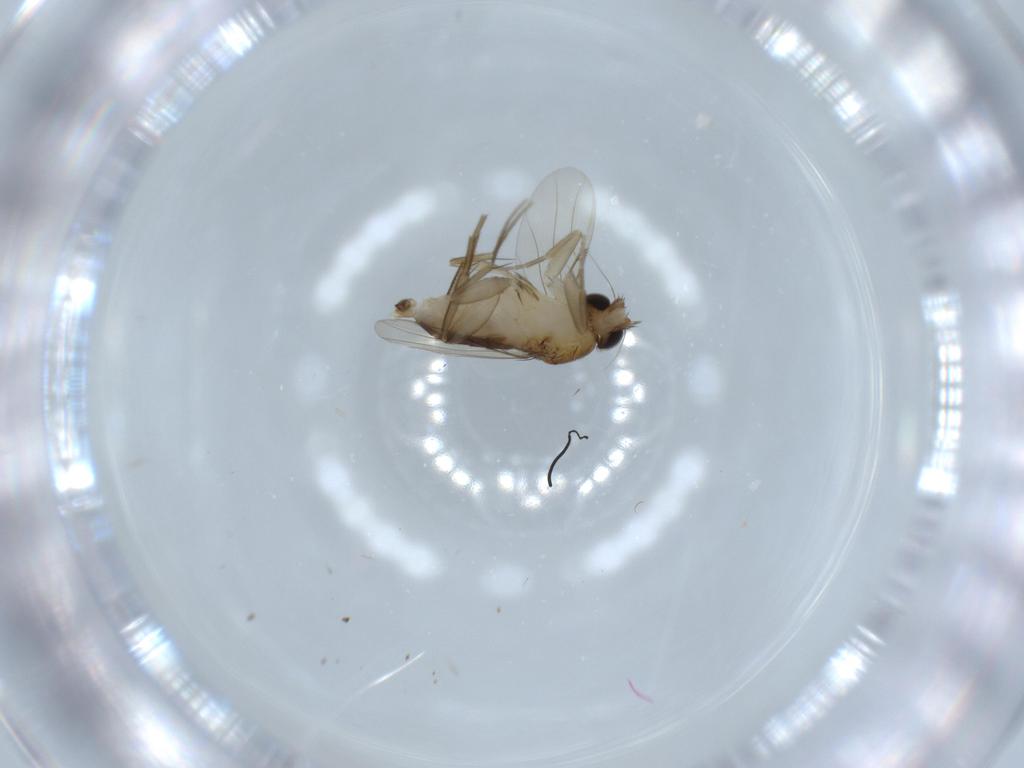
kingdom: Animalia
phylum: Arthropoda
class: Insecta
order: Diptera
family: Phoridae
